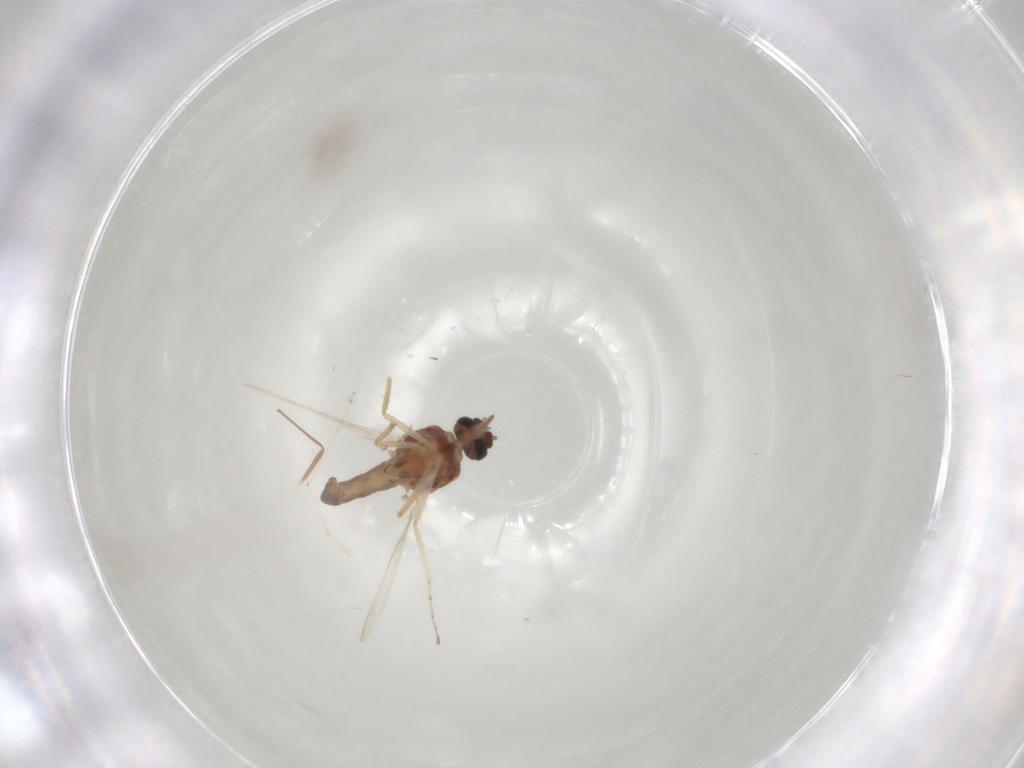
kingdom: Animalia
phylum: Arthropoda
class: Insecta
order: Diptera
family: Ceratopogonidae
